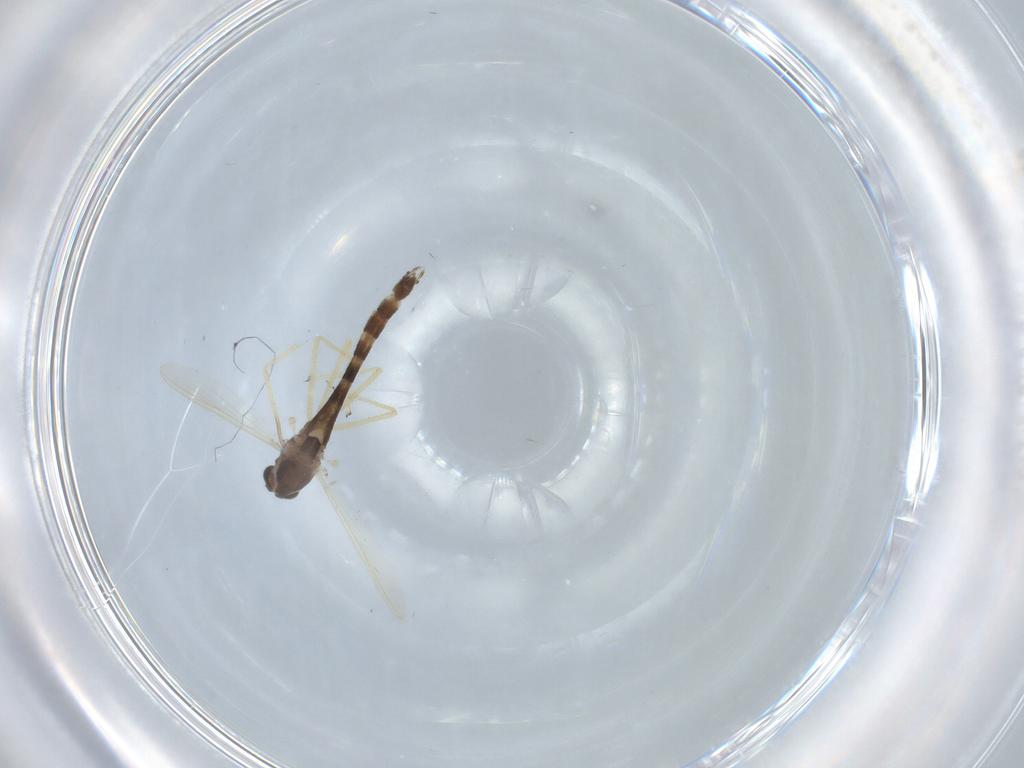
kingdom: Animalia
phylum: Arthropoda
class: Insecta
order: Diptera
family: Chironomidae
